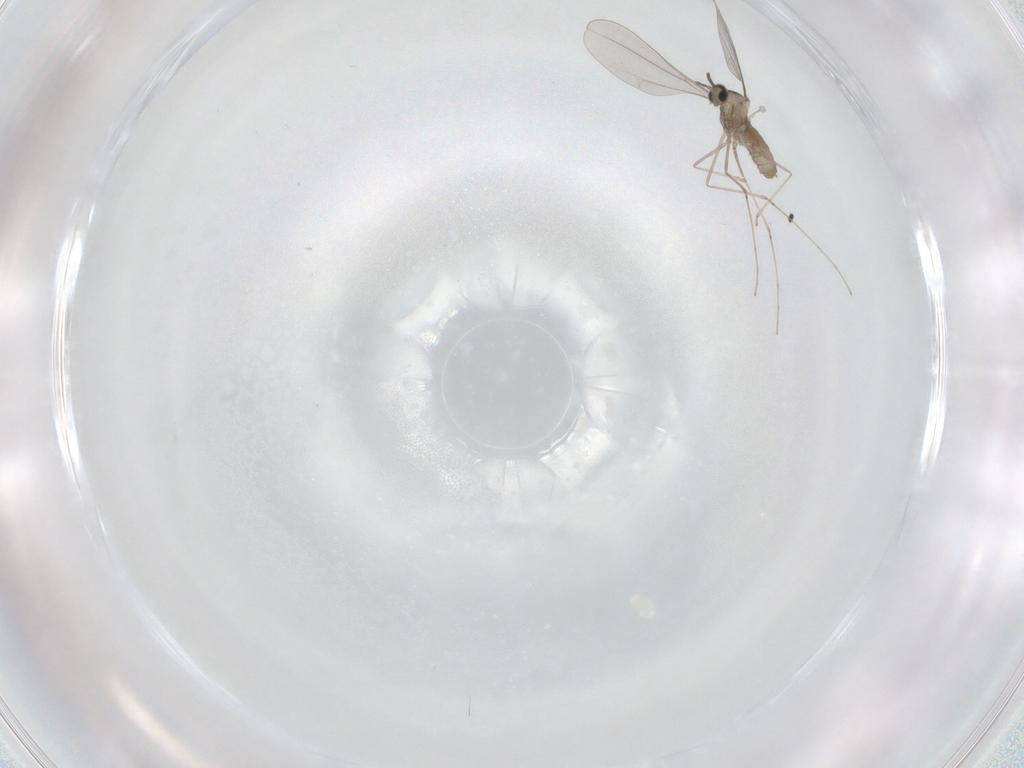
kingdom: Animalia
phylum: Arthropoda
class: Insecta
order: Diptera
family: Sciaridae
